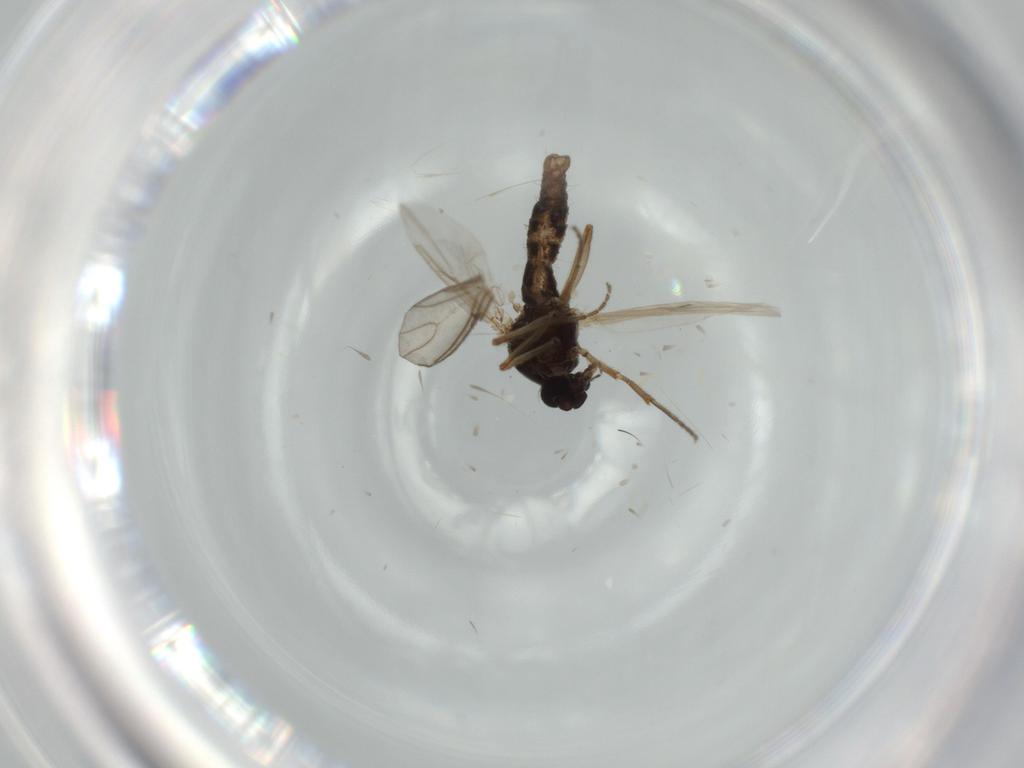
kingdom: Animalia
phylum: Arthropoda
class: Insecta
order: Diptera
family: Ceratopogonidae
